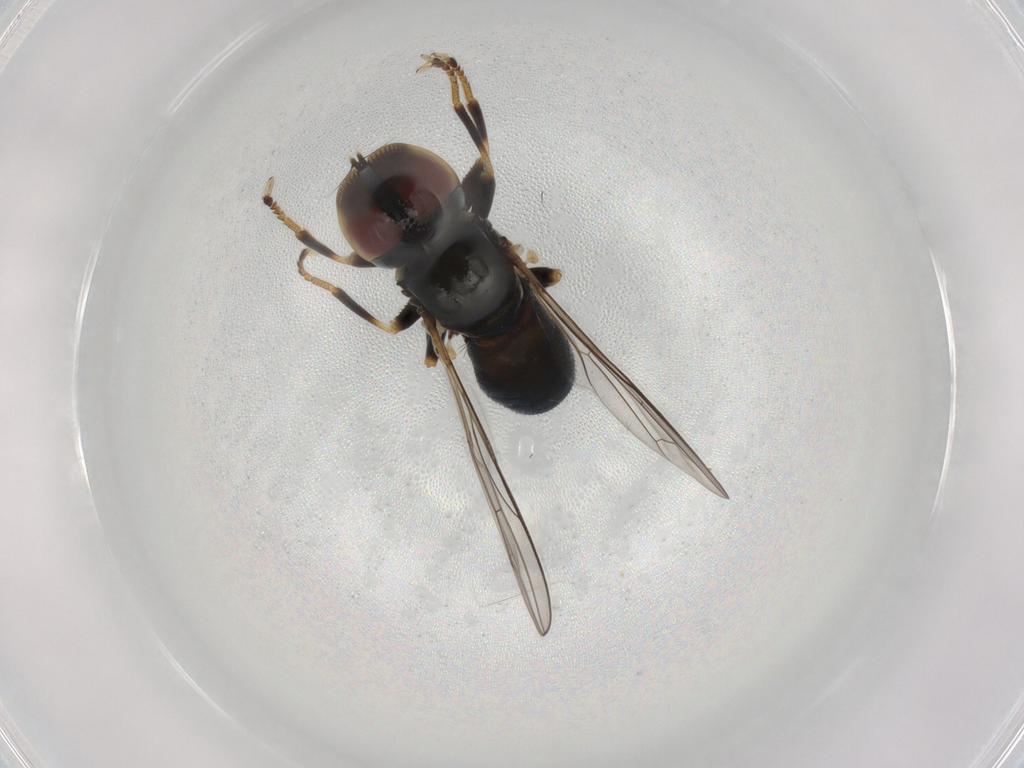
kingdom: Animalia
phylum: Arthropoda
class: Insecta
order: Diptera
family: Pipunculidae
